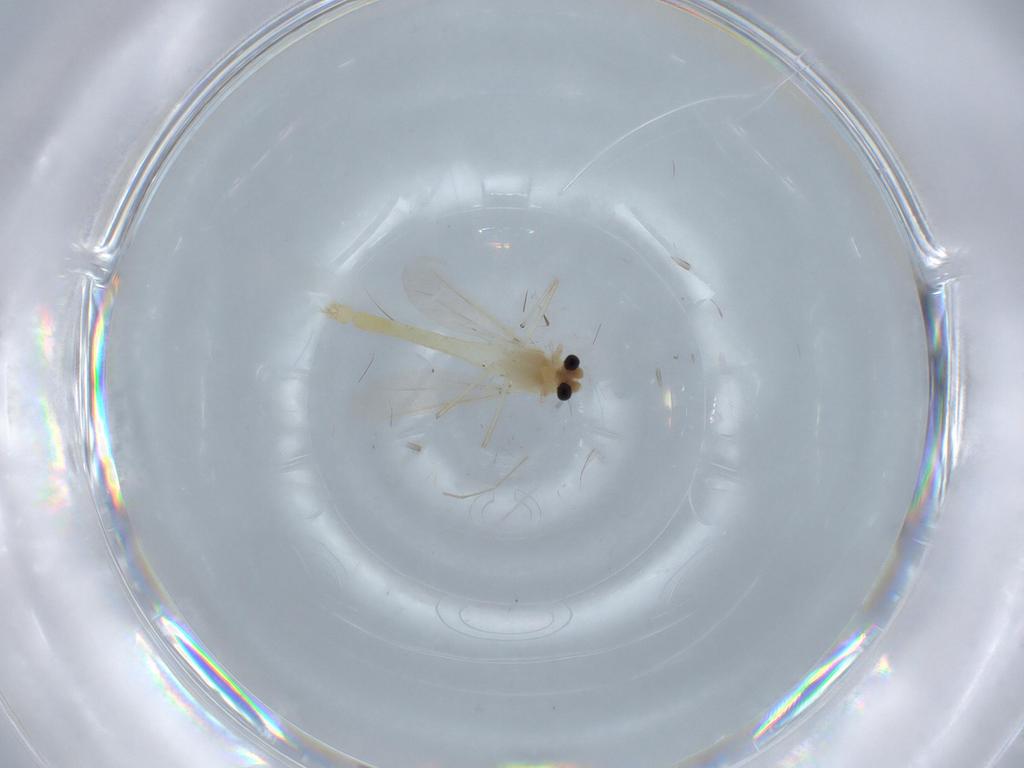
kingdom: Animalia
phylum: Arthropoda
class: Insecta
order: Diptera
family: Chironomidae
